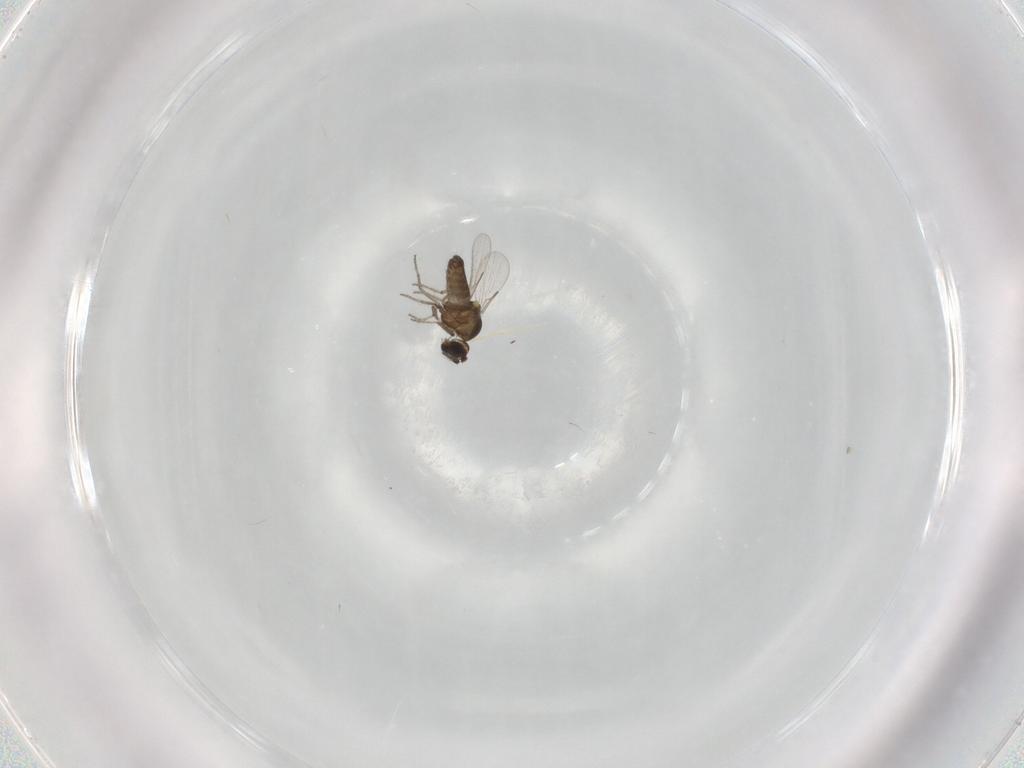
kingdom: Animalia
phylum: Arthropoda
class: Insecta
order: Diptera
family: Ceratopogonidae
